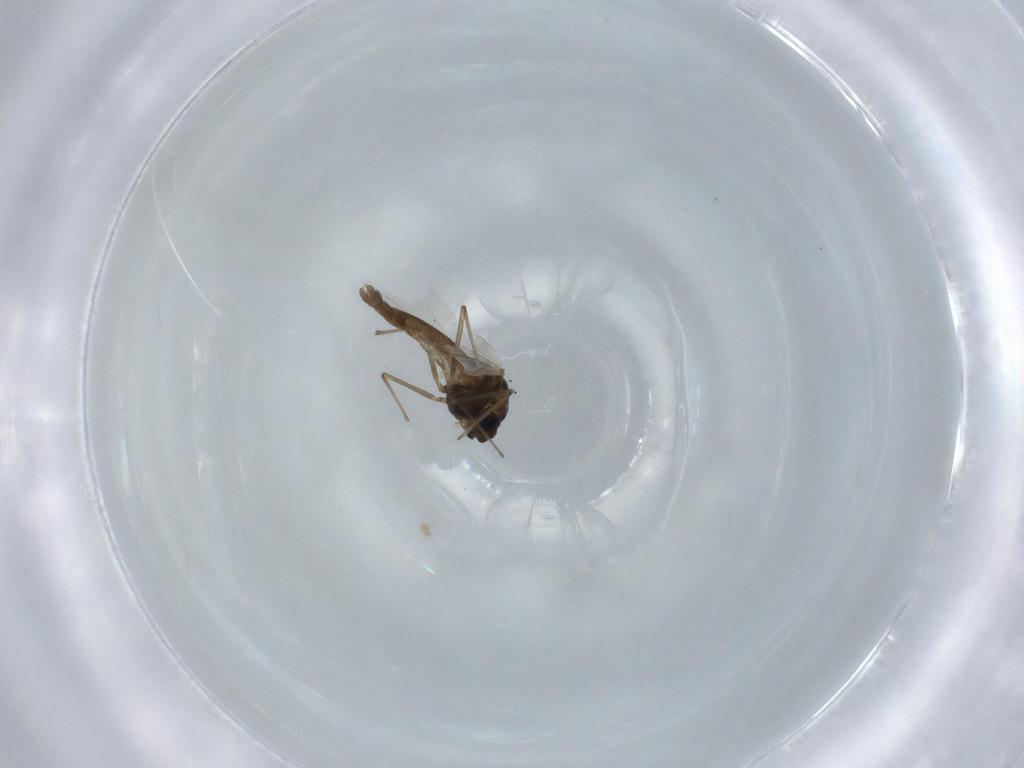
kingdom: Animalia
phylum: Arthropoda
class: Insecta
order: Diptera
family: Chironomidae
